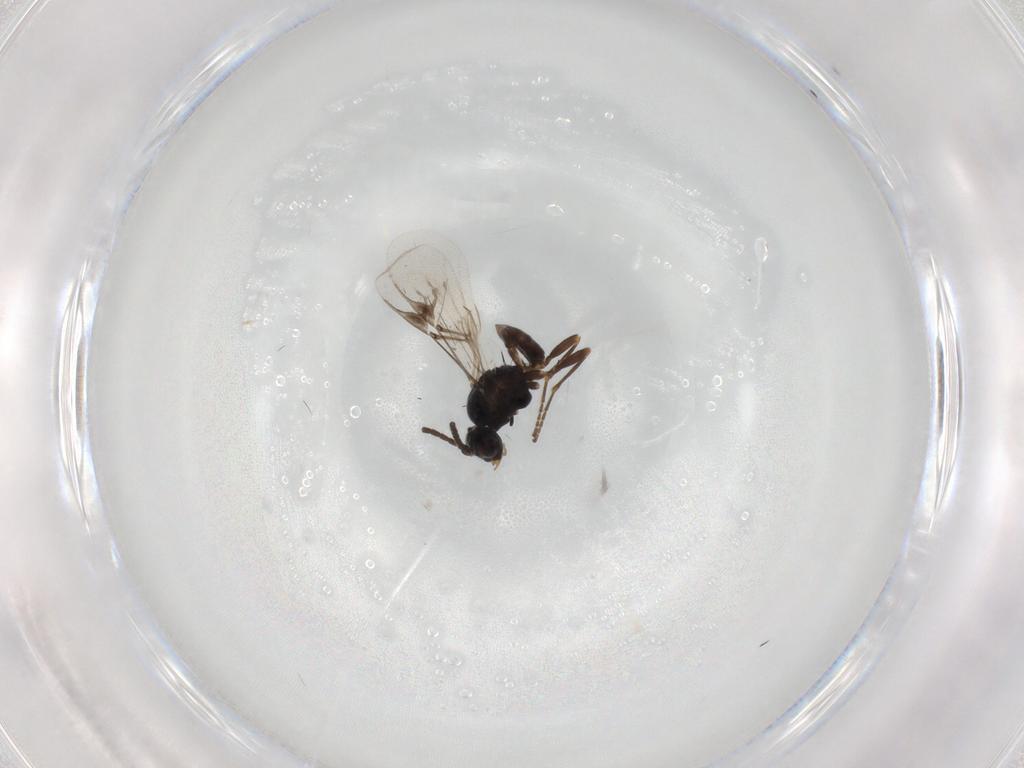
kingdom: Animalia
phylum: Arthropoda
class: Insecta
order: Hymenoptera
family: Braconidae
